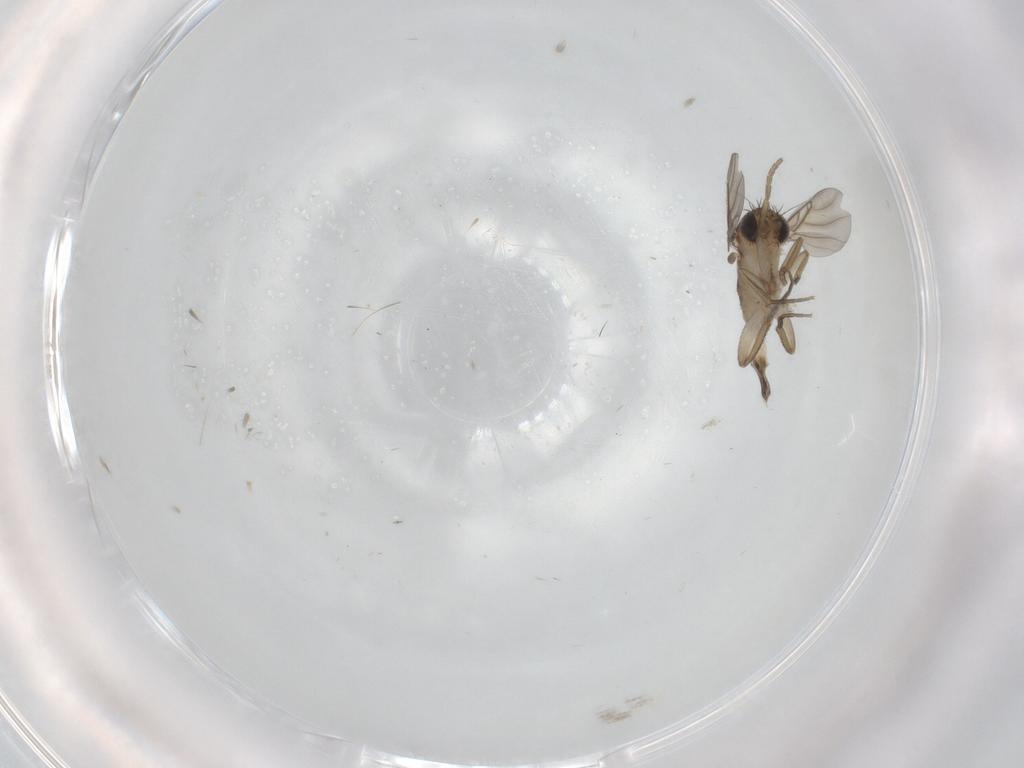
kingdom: Animalia
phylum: Arthropoda
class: Insecta
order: Diptera
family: Phoridae
